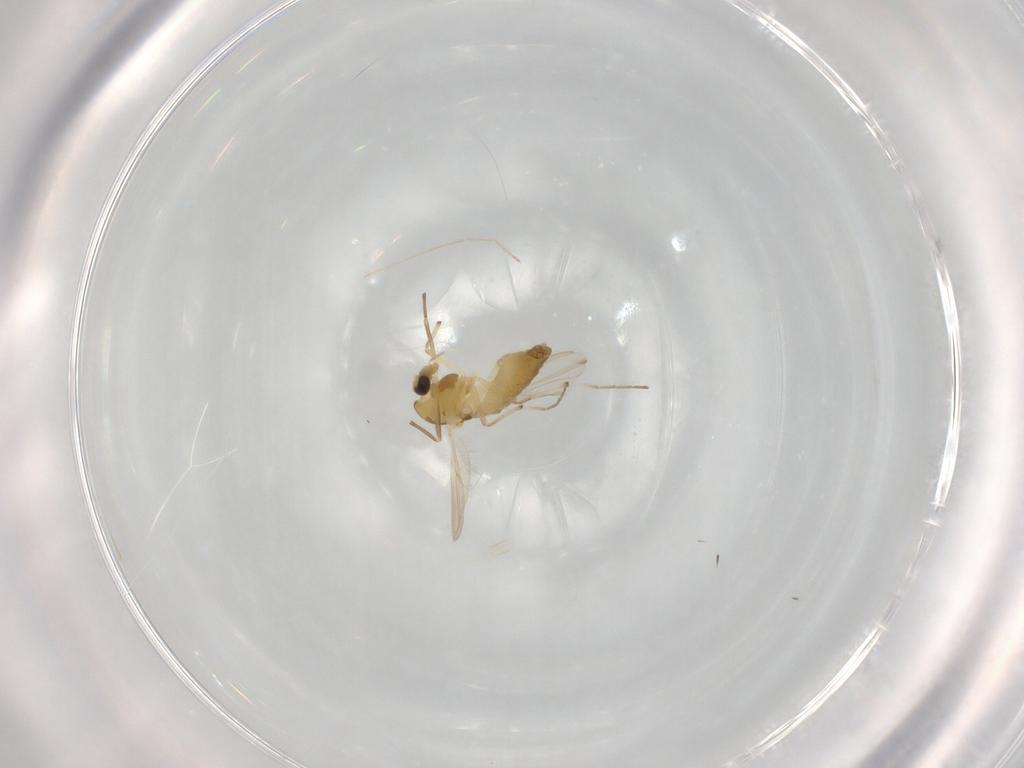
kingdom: Animalia
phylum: Arthropoda
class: Insecta
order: Diptera
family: Chironomidae
